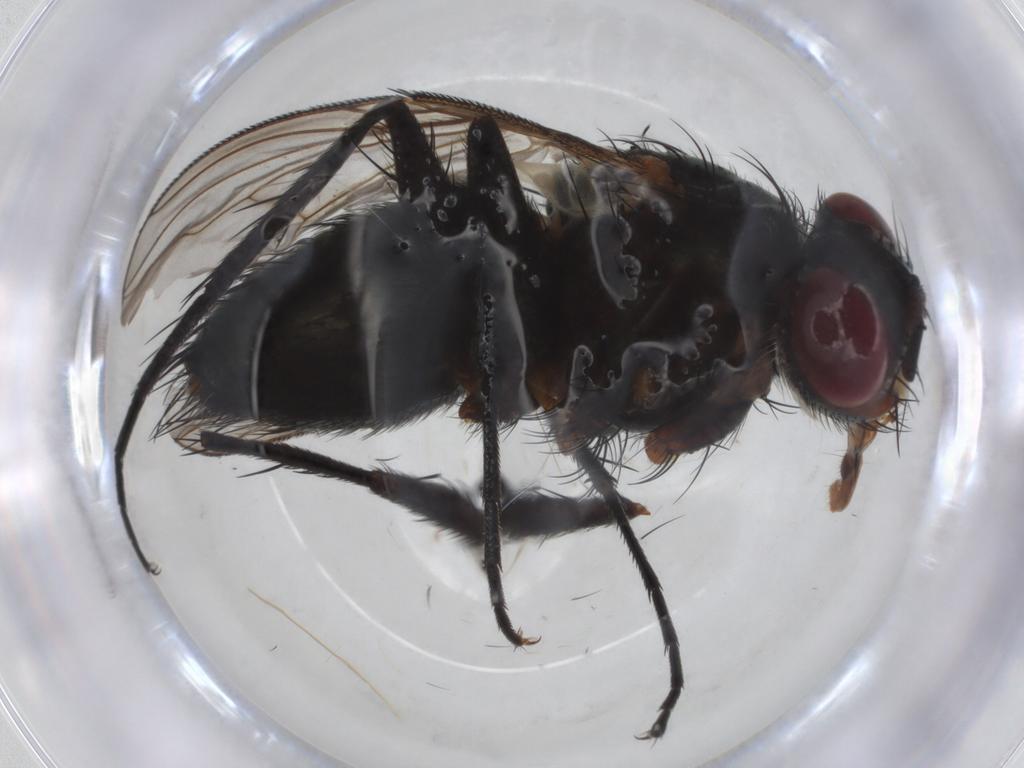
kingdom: Animalia
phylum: Arthropoda
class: Insecta
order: Diptera
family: Tachinidae
